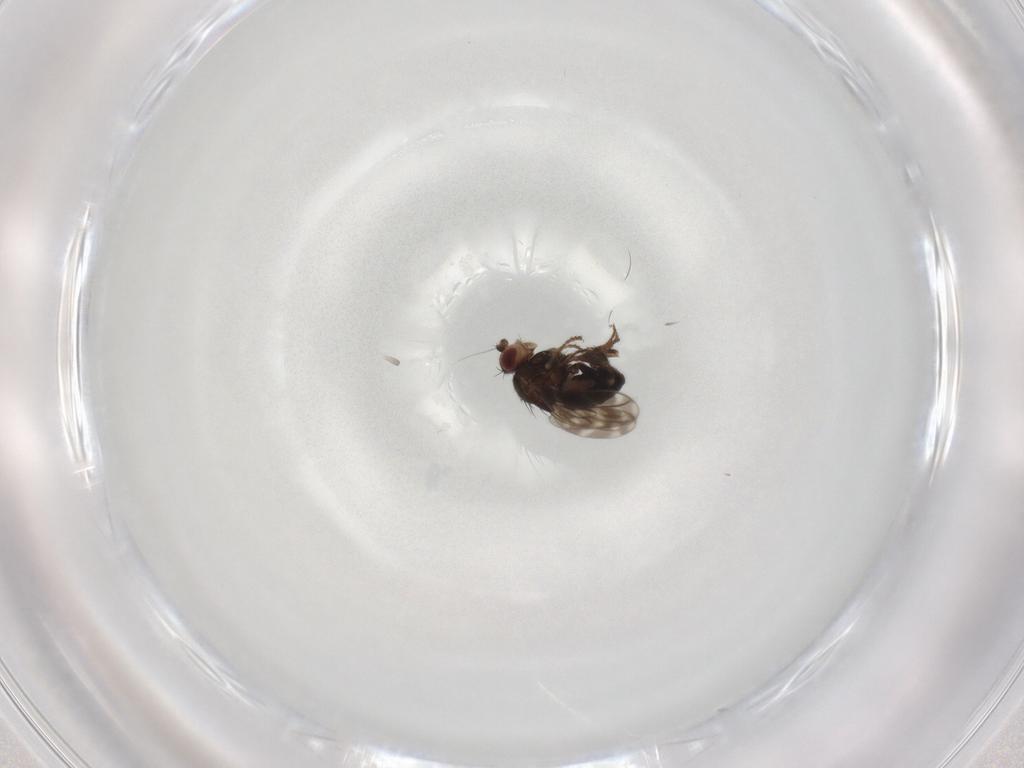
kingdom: Animalia
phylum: Arthropoda
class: Insecta
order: Diptera
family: Sphaeroceridae
